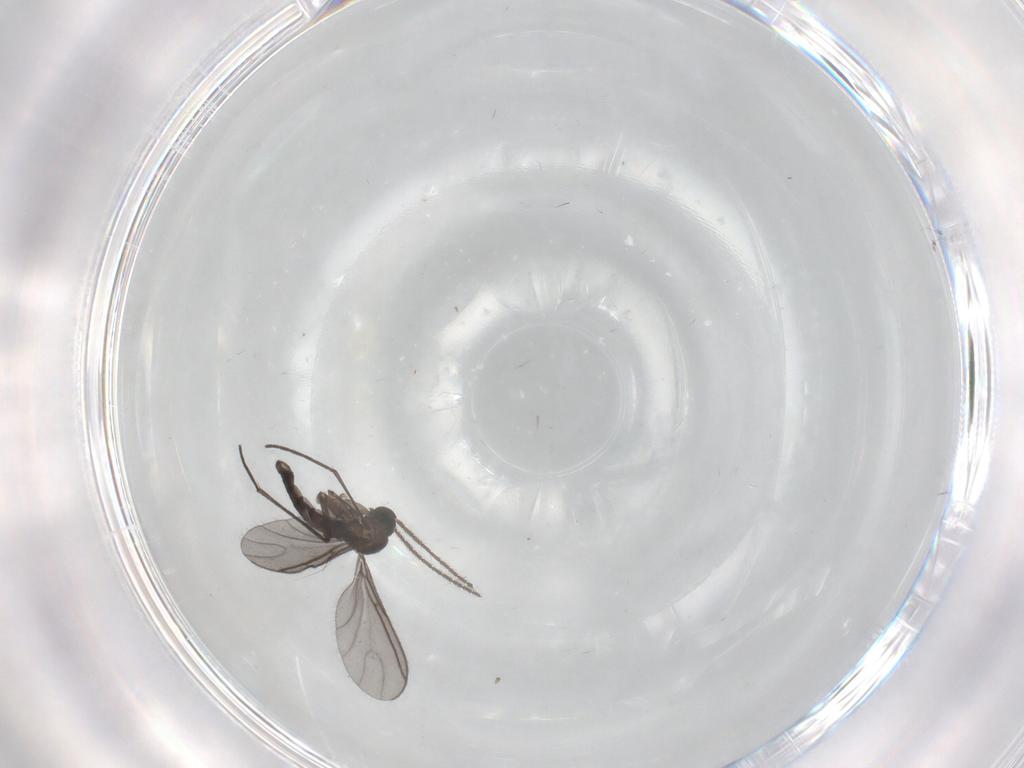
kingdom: Animalia
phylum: Arthropoda
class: Insecta
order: Diptera
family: Sciaridae
